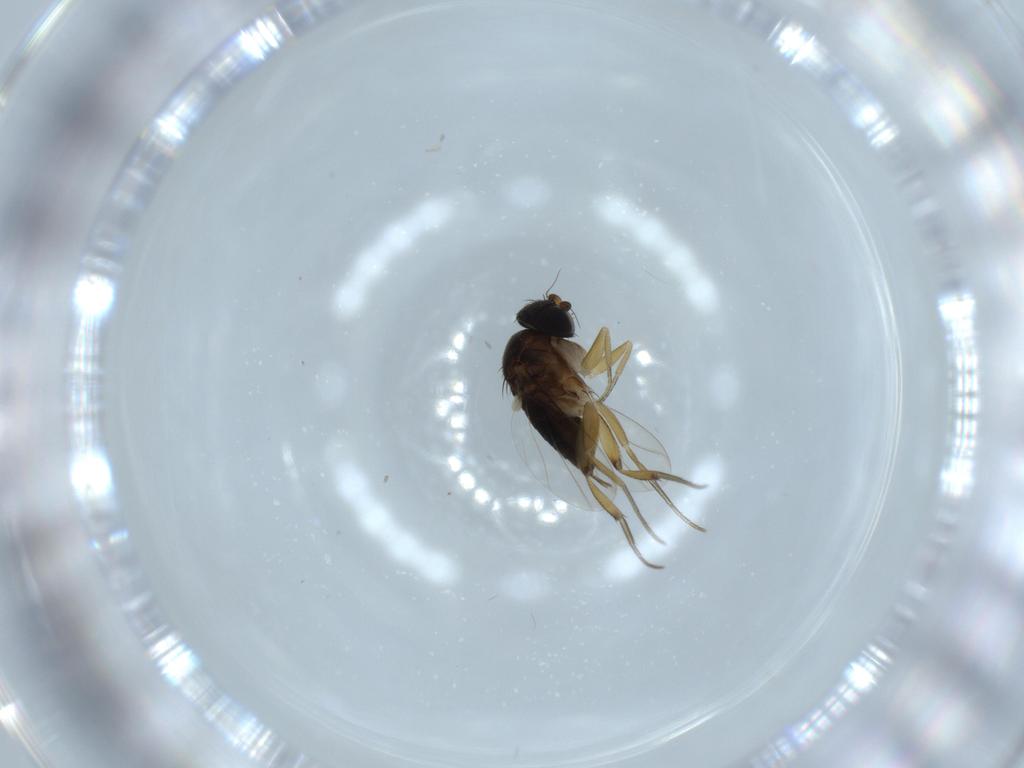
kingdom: Animalia
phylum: Arthropoda
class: Insecta
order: Diptera
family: Phoridae
